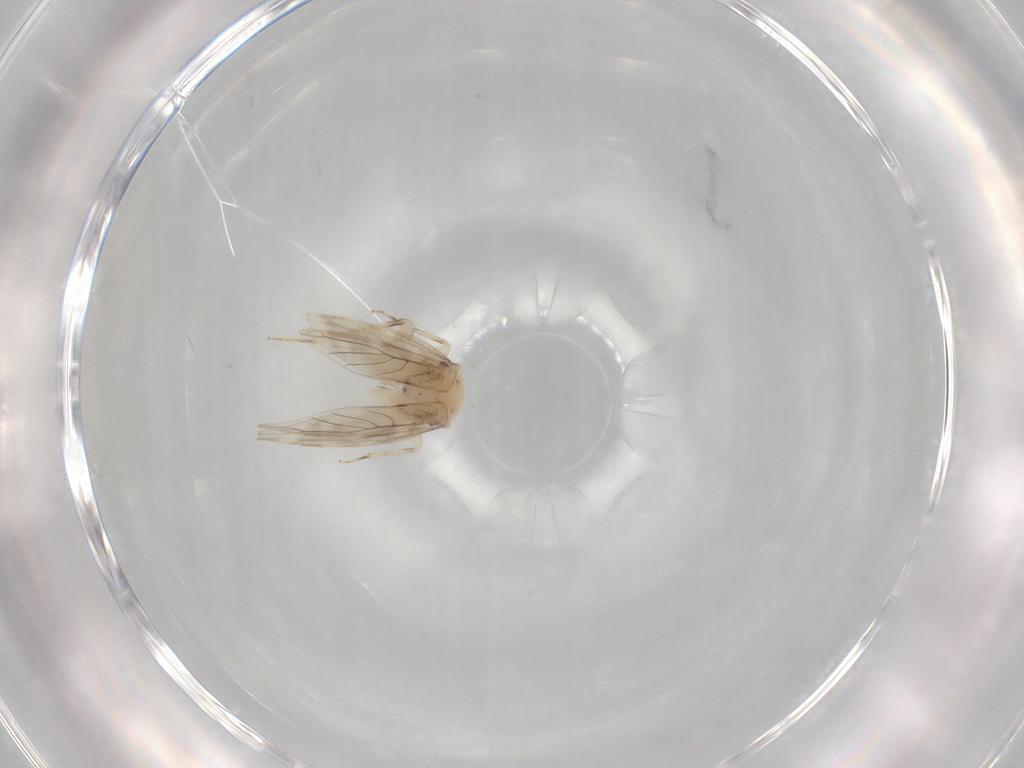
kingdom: Animalia
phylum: Arthropoda
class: Insecta
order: Psocodea
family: Lepidopsocidae
